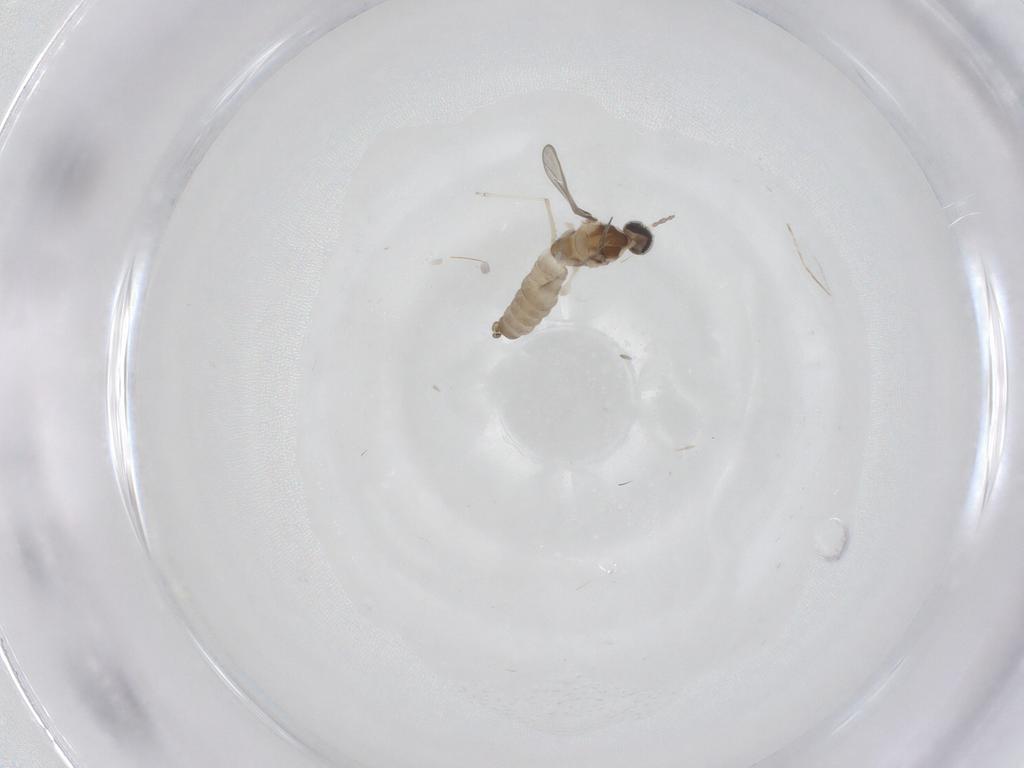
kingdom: Animalia
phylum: Arthropoda
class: Insecta
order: Diptera
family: Cecidomyiidae
